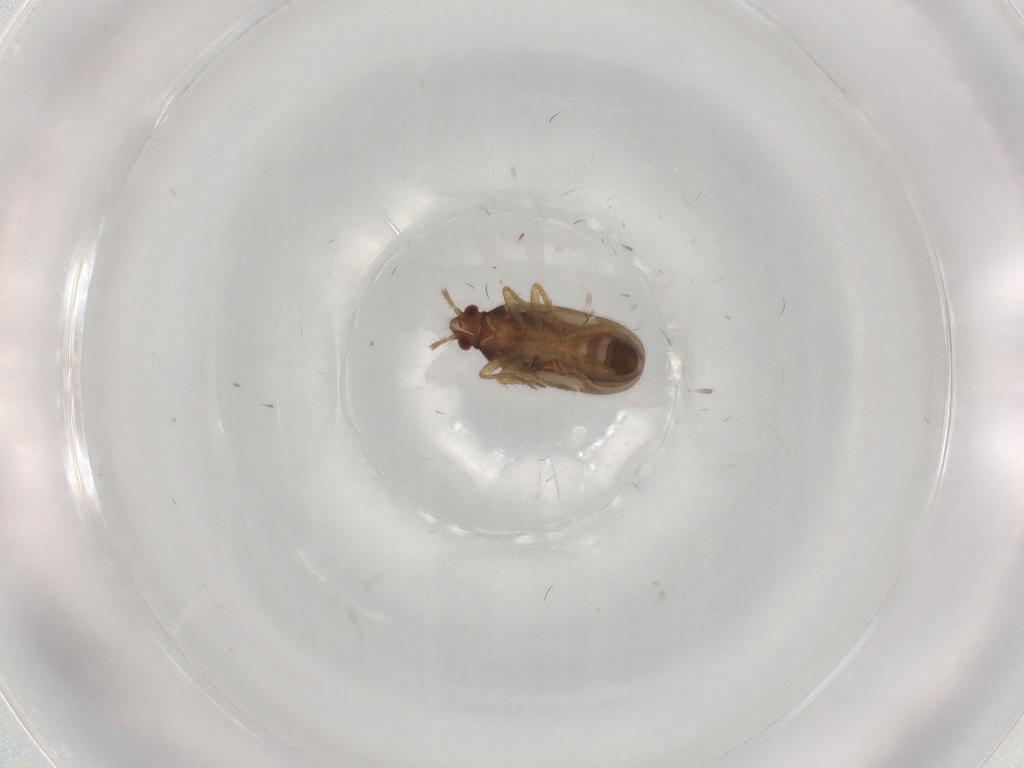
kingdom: Animalia
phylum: Arthropoda
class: Insecta
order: Hemiptera
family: Ceratocombidae
